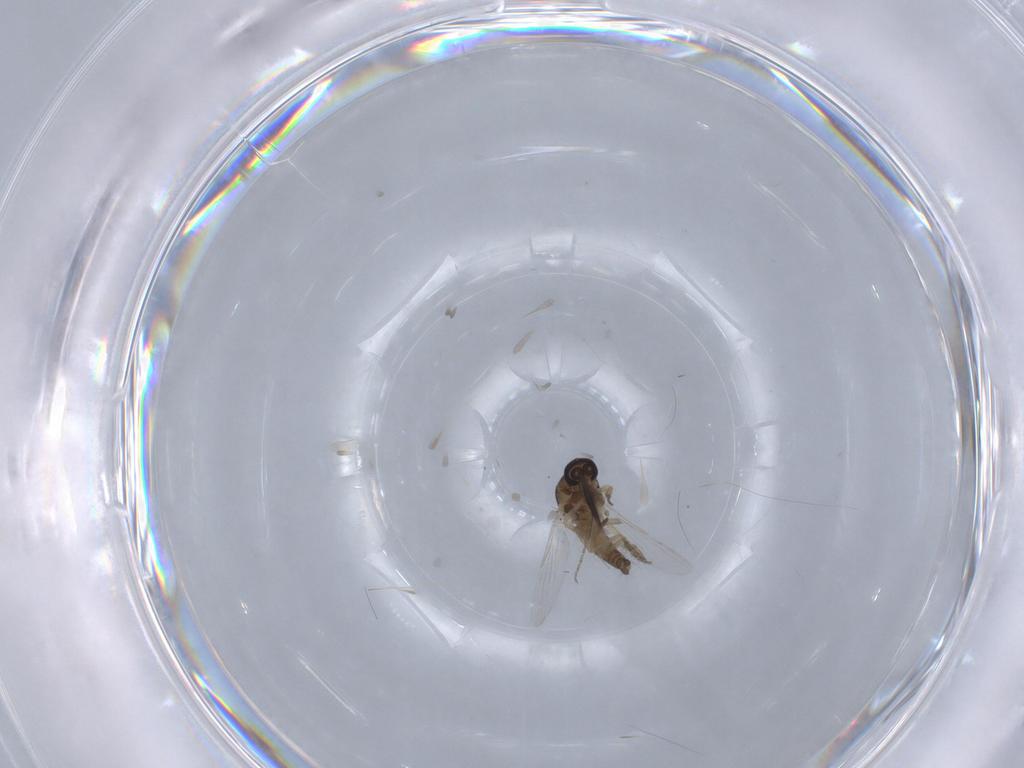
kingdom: Animalia
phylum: Arthropoda
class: Insecta
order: Diptera
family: Ceratopogonidae
